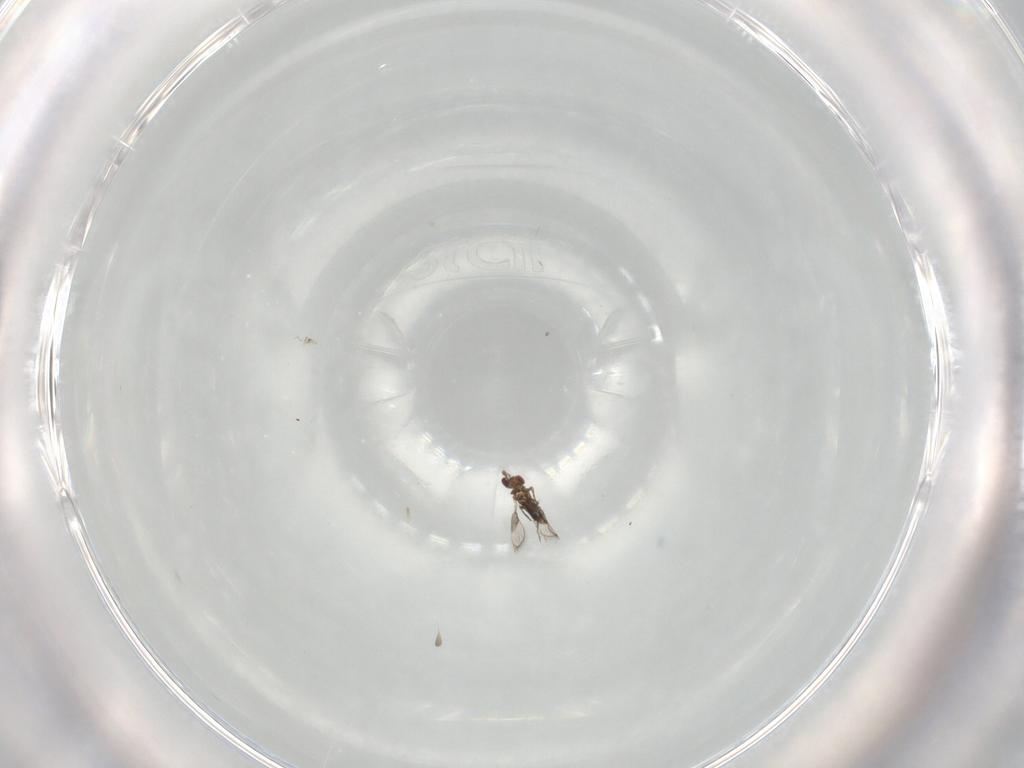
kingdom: Animalia
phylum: Arthropoda
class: Insecta
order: Hymenoptera
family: Trichogrammatidae
